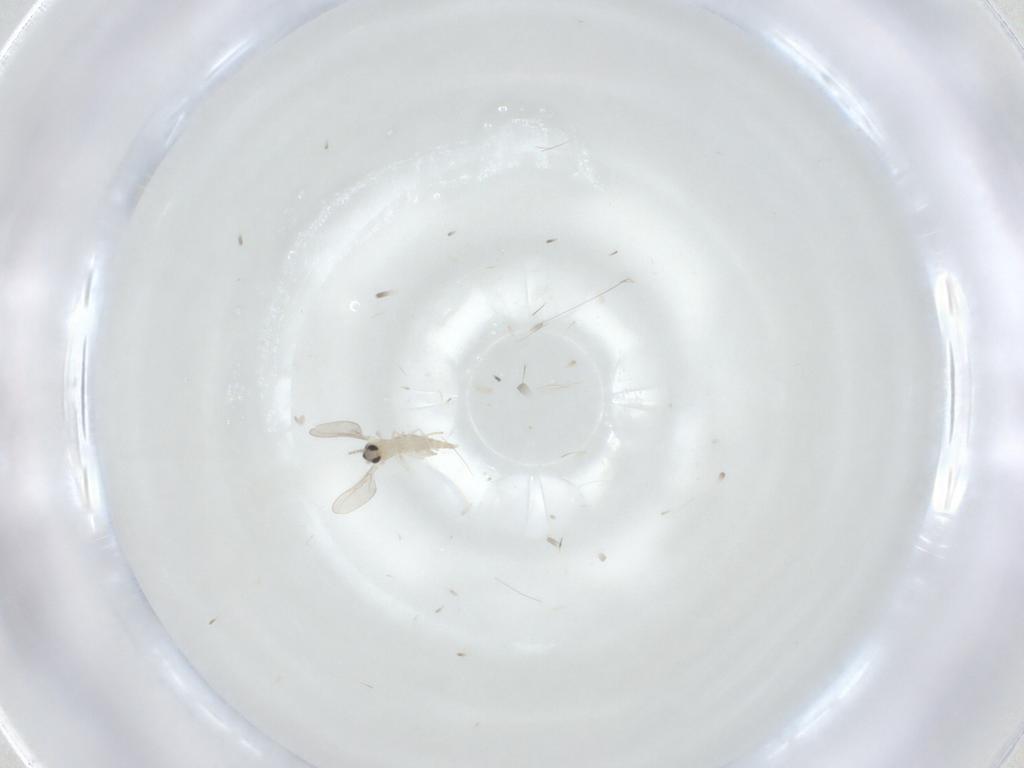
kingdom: Animalia
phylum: Arthropoda
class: Insecta
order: Diptera
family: Cecidomyiidae
